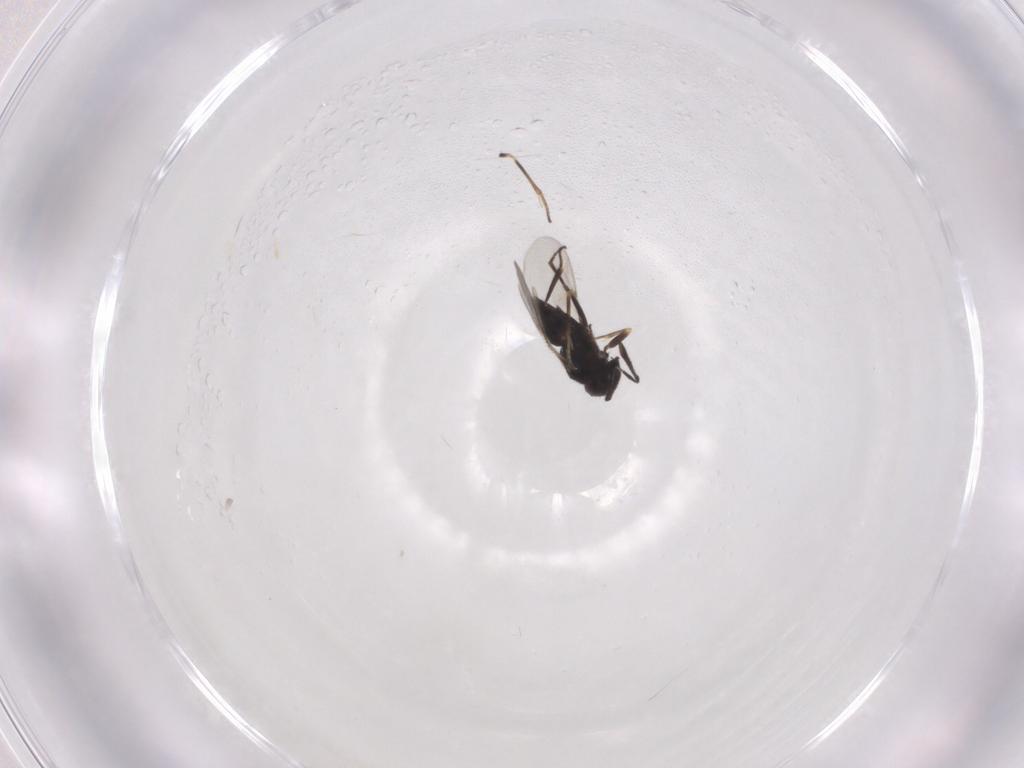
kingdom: Animalia
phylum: Arthropoda
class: Insecta
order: Hymenoptera
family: Encyrtidae
